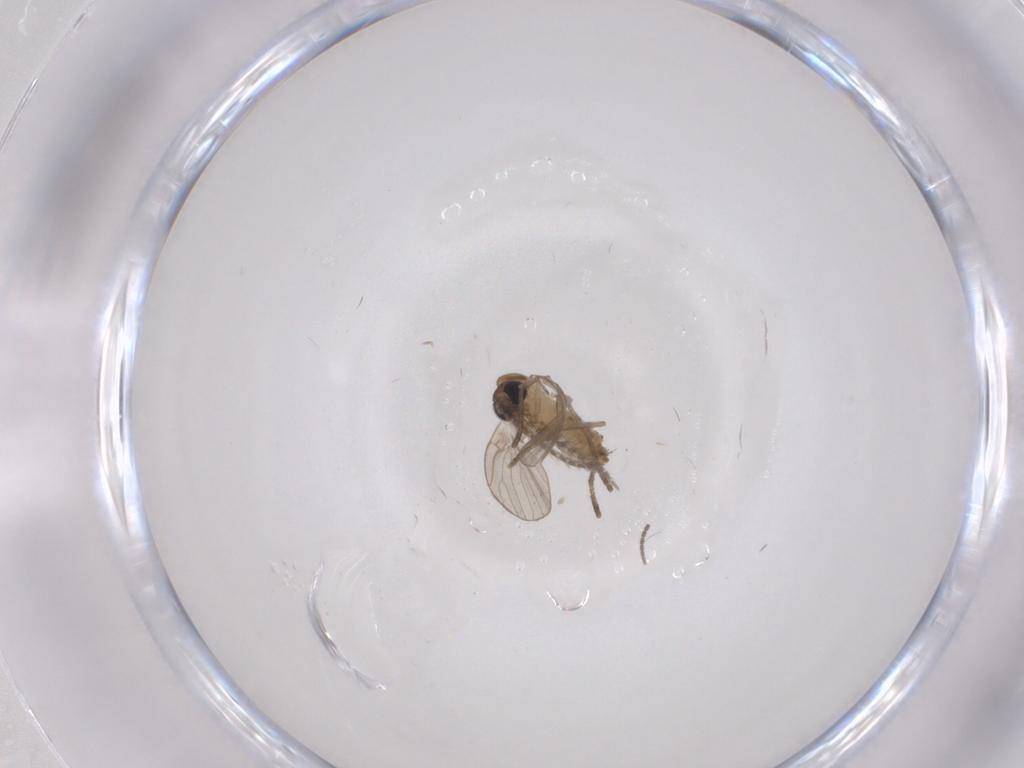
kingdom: Animalia
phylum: Arthropoda
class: Insecta
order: Diptera
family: Psychodidae
